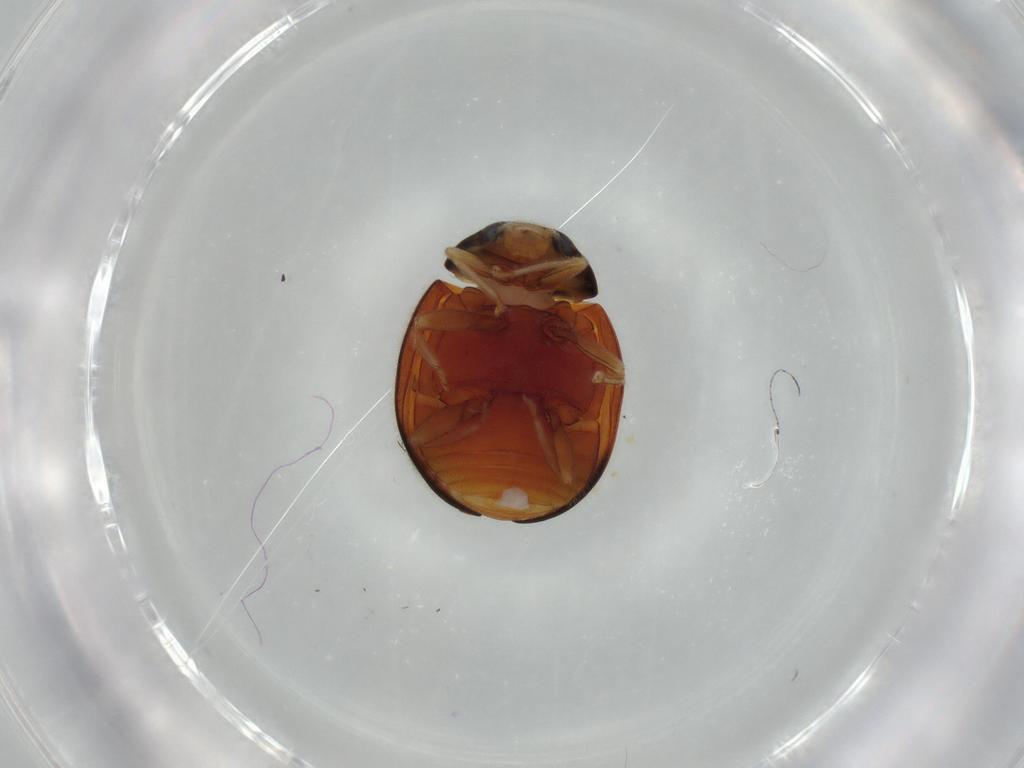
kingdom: Animalia
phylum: Arthropoda
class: Insecta
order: Coleoptera
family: Coccinellidae
